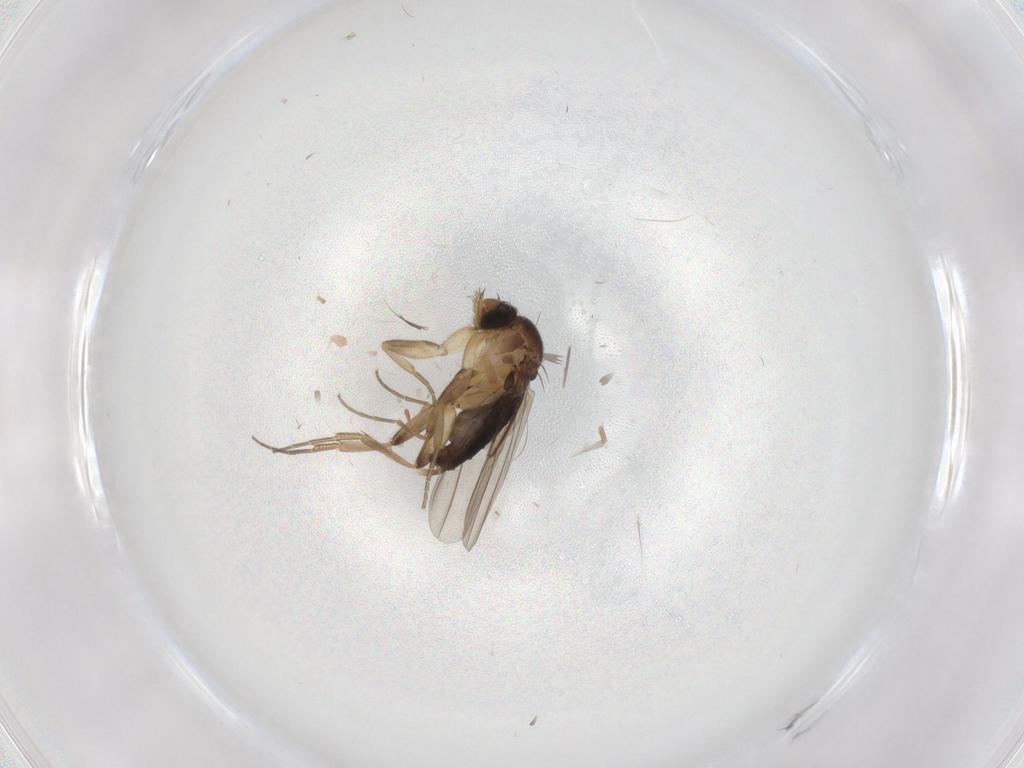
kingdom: Animalia
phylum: Arthropoda
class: Insecta
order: Diptera
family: Phoridae
